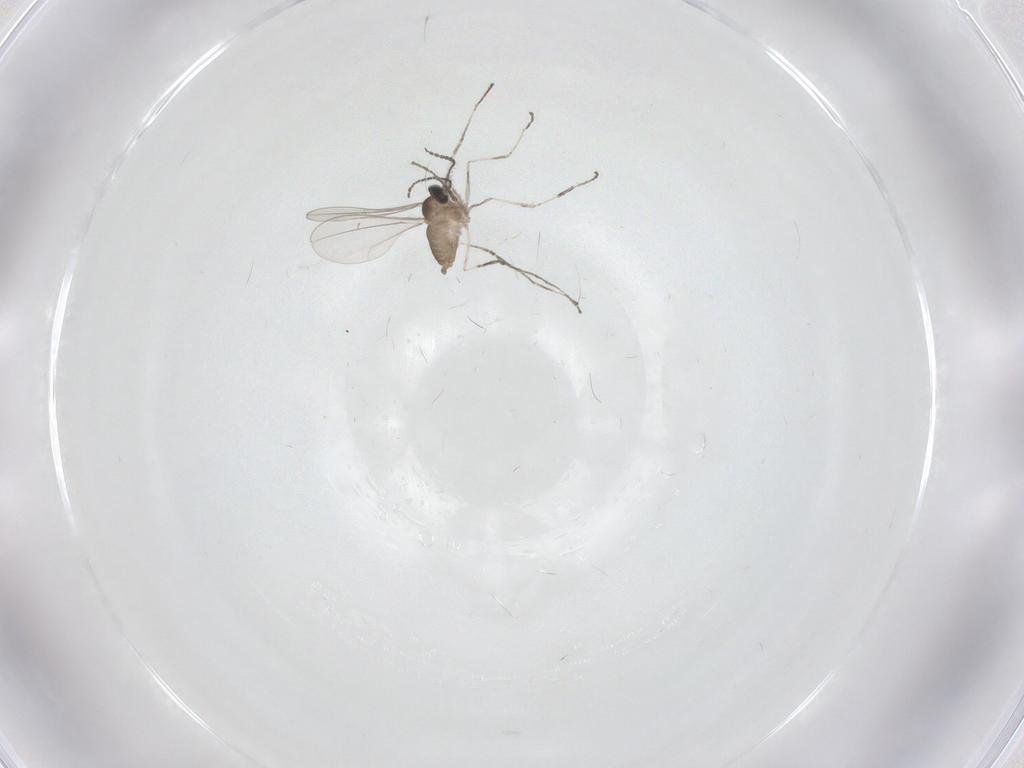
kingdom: Animalia
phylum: Arthropoda
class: Insecta
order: Diptera
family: Cecidomyiidae
